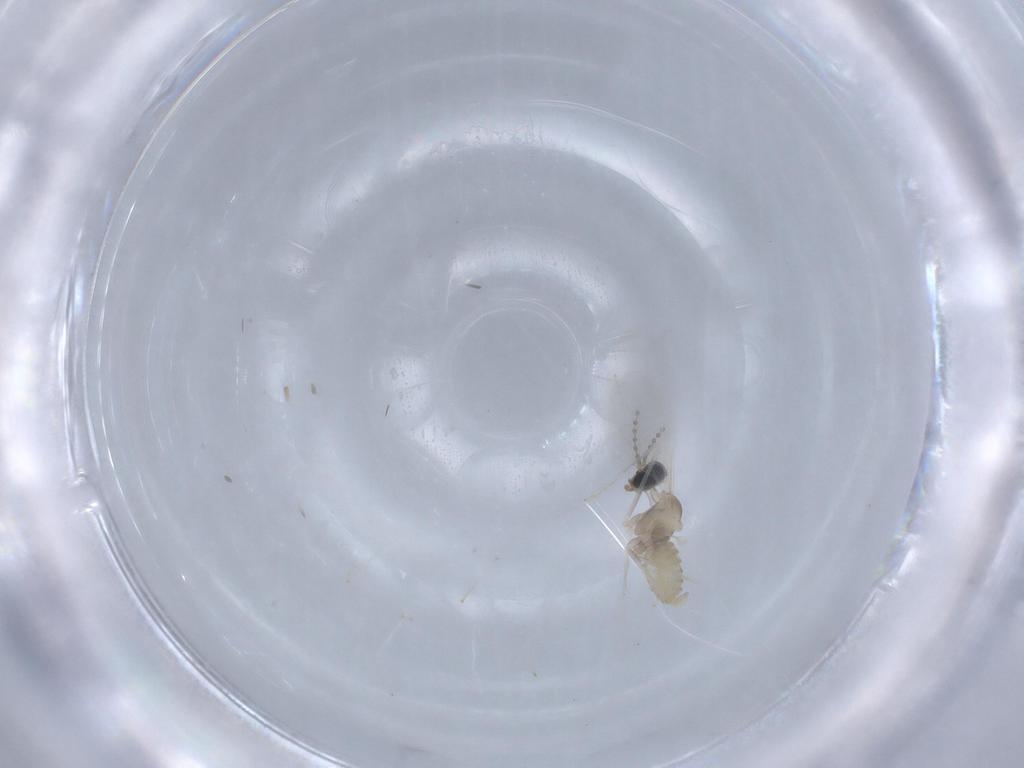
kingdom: Animalia
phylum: Arthropoda
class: Insecta
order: Diptera
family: Cecidomyiidae
